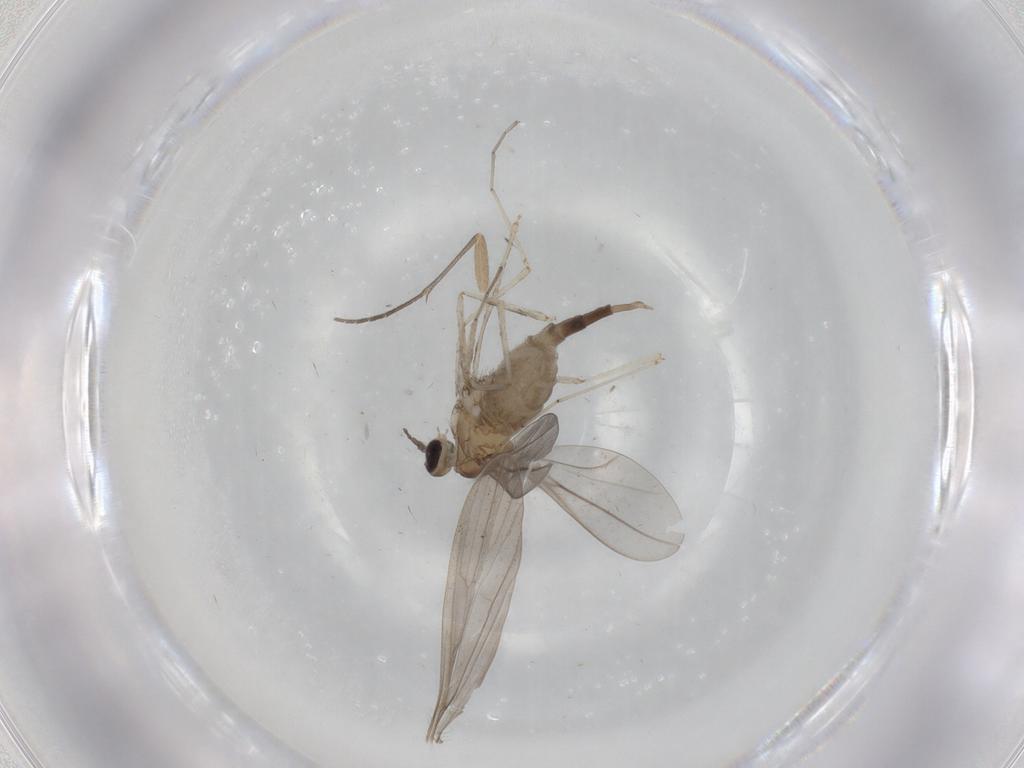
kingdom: Animalia
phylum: Arthropoda
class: Insecta
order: Diptera
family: Cecidomyiidae
